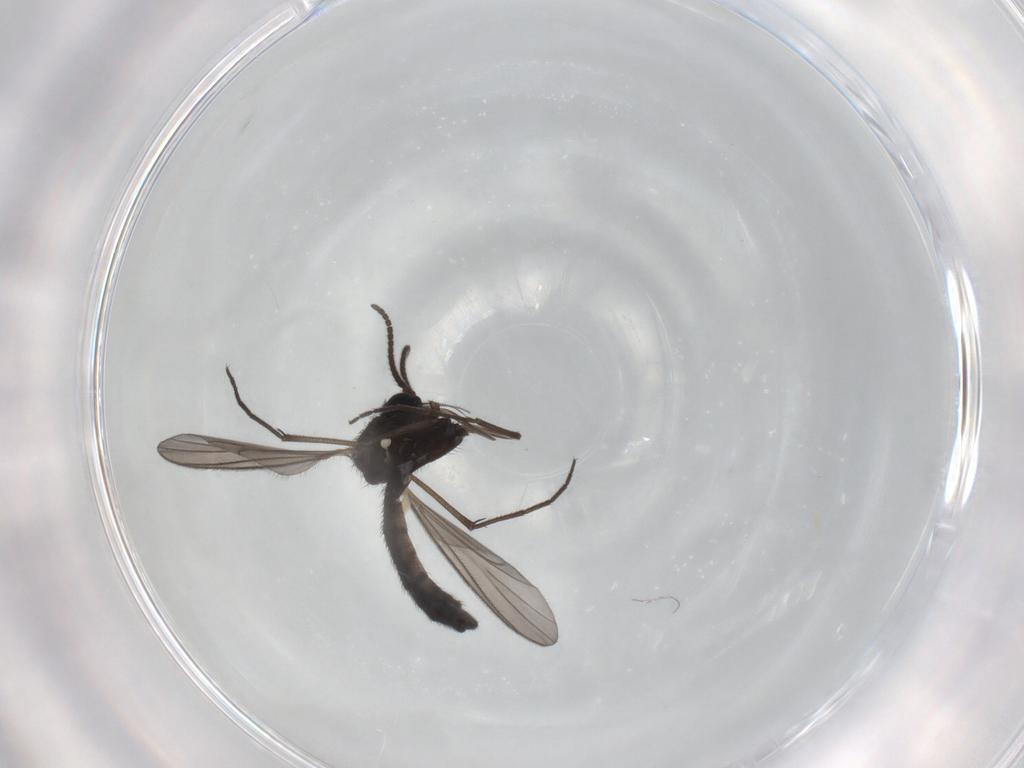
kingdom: Animalia
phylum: Arthropoda
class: Insecta
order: Diptera
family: Keroplatidae
